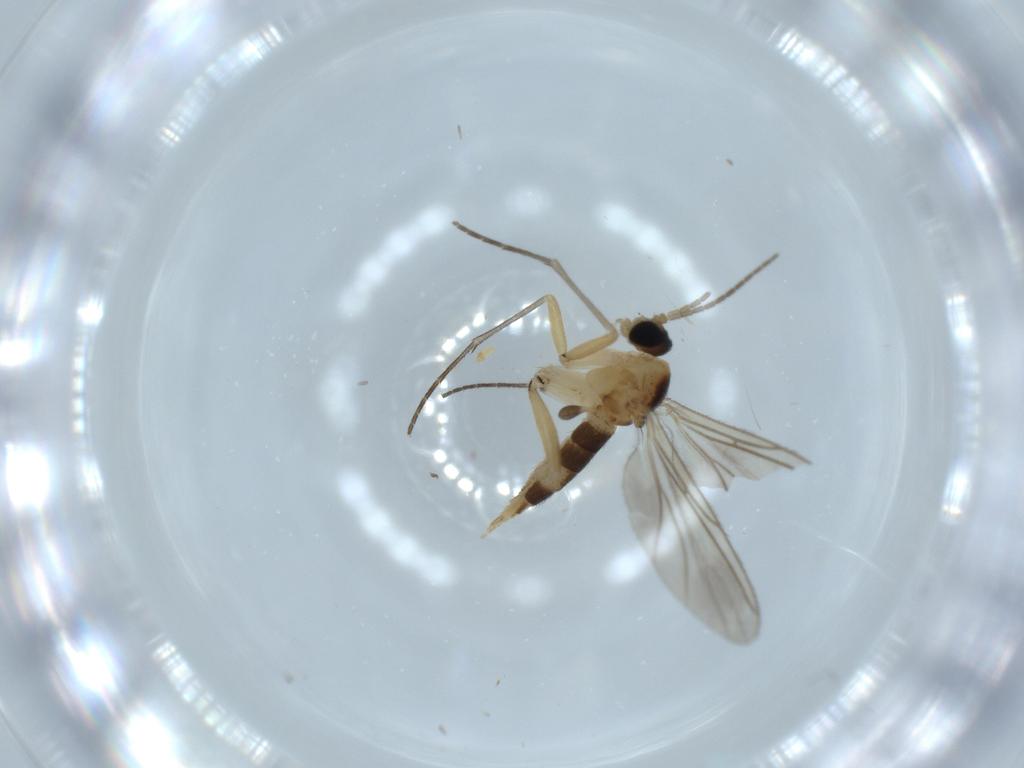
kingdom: Animalia
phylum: Arthropoda
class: Insecta
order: Diptera
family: Sciaridae
